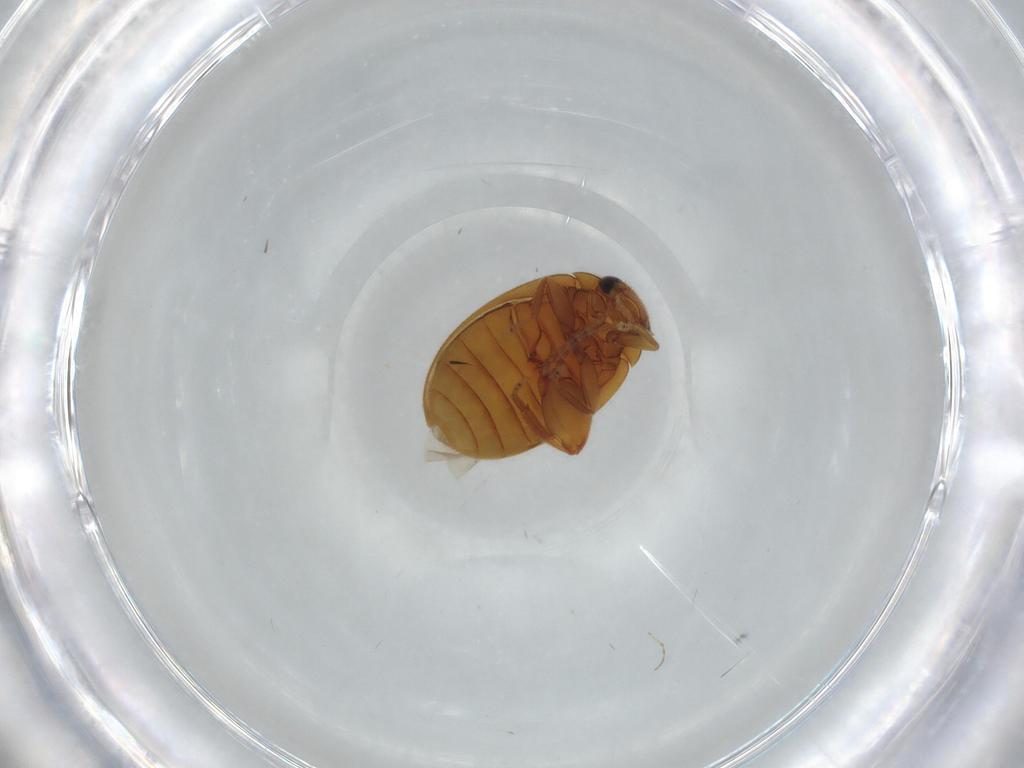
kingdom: Animalia
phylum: Arthropoda
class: Insecta
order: Coleoptera
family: Scirtidae
